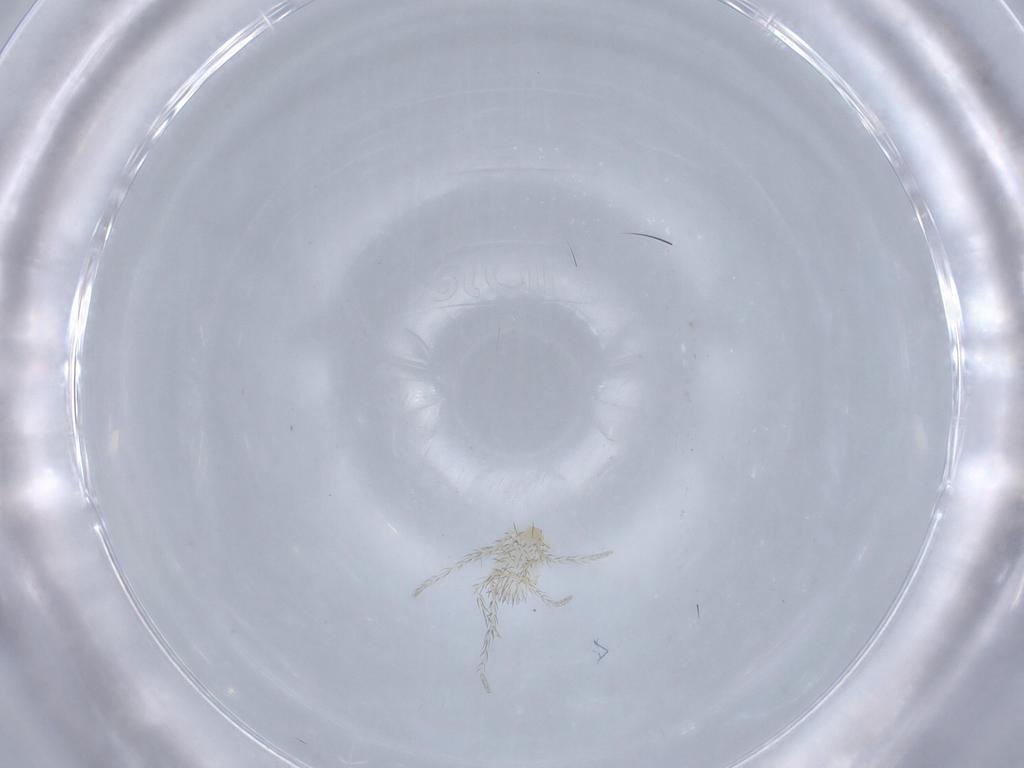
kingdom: Animalia
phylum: Arthropoda
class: Arachnida
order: Trombidiformes
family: Erythraeidae
